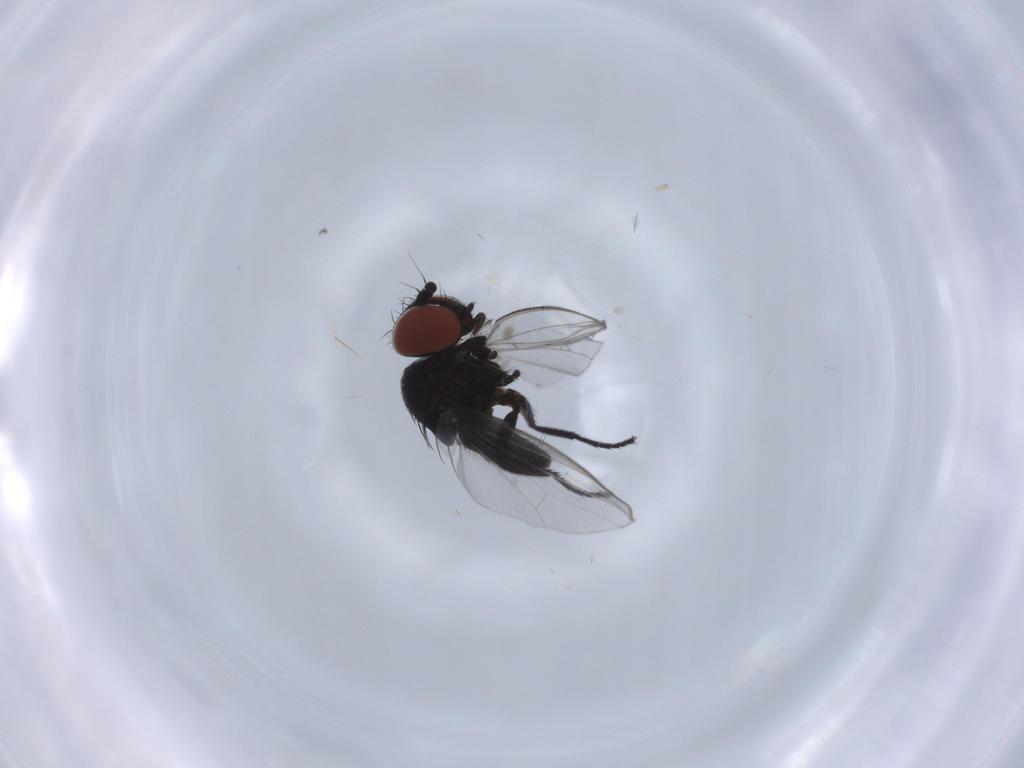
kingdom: Animalia
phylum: Arthropoda
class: Insecta
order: Diptera
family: Milichiidae
